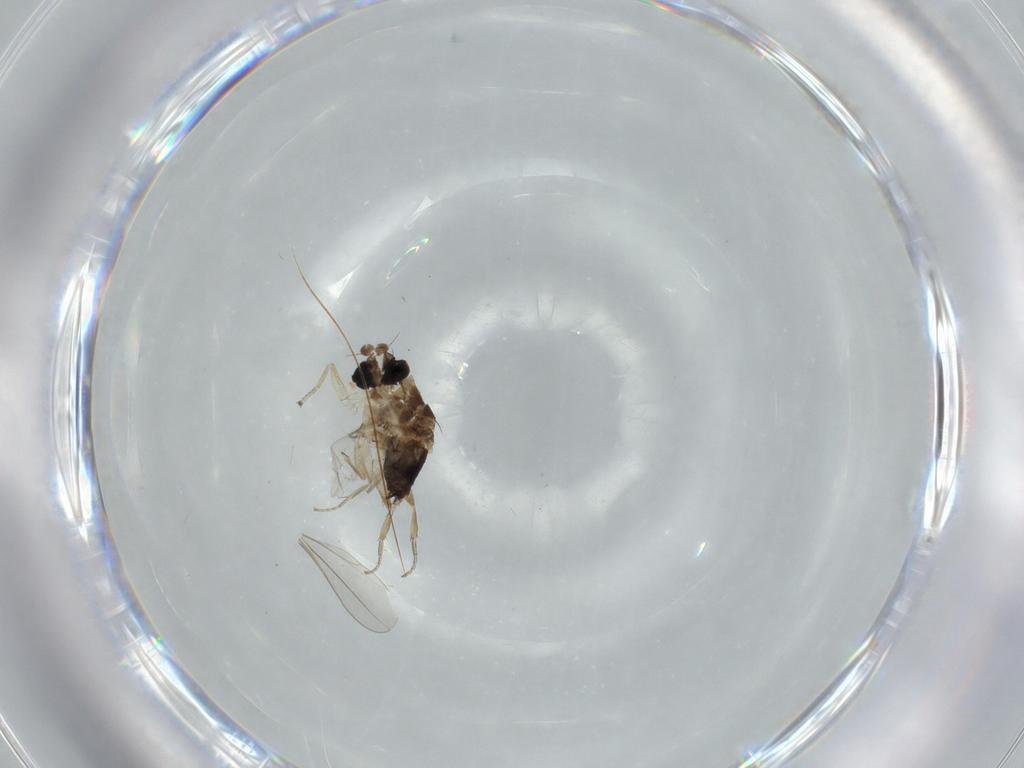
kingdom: Animalia
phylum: Arthropoda
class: Insecta
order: Diptera
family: Phoridae
